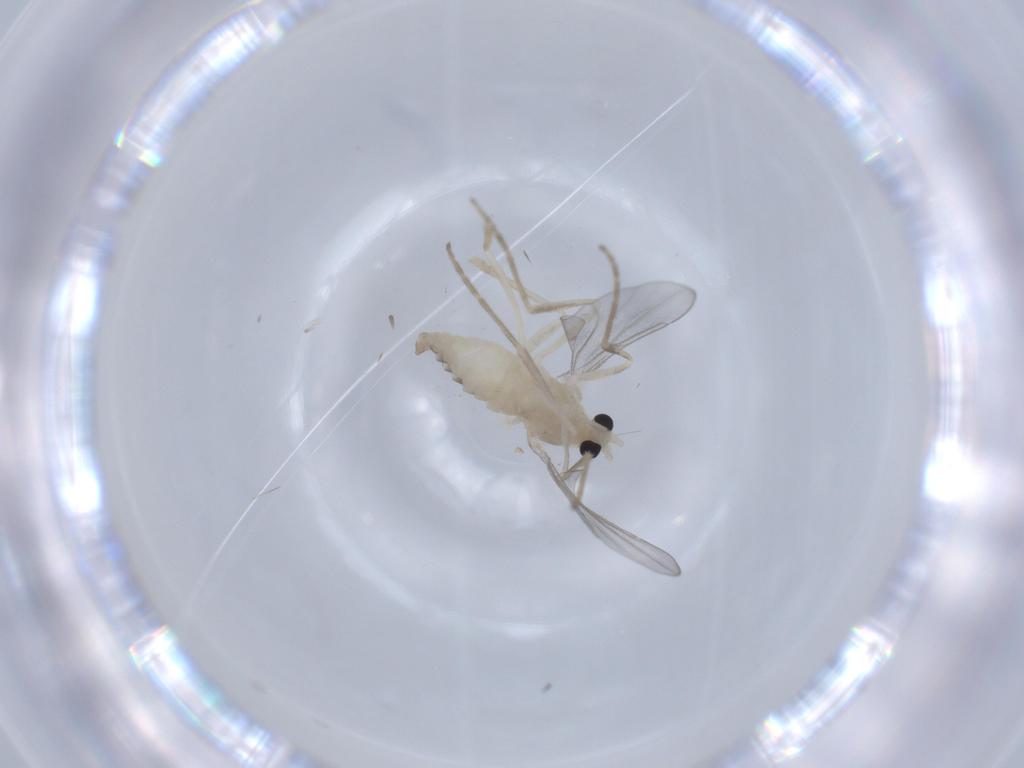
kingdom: Animalia
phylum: Arthropoda
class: Insecta
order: Diptera
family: Cecidomyiidae
